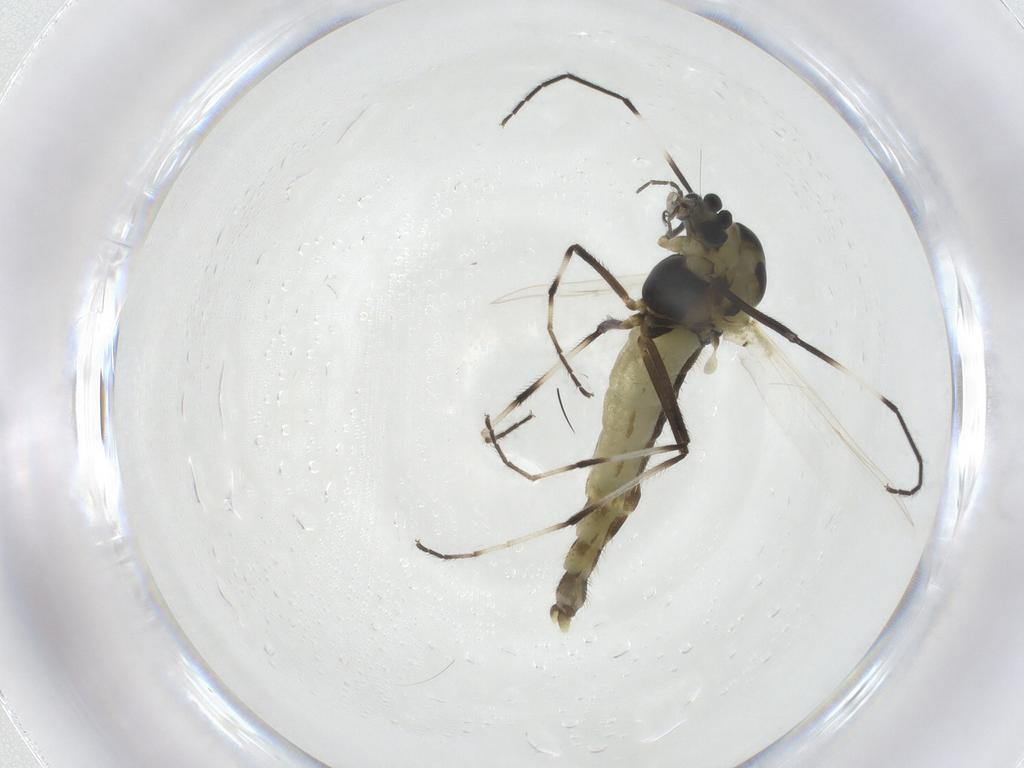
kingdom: Animalia
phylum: Arthropoda
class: Insecta
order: Diptera
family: Chironomidae
